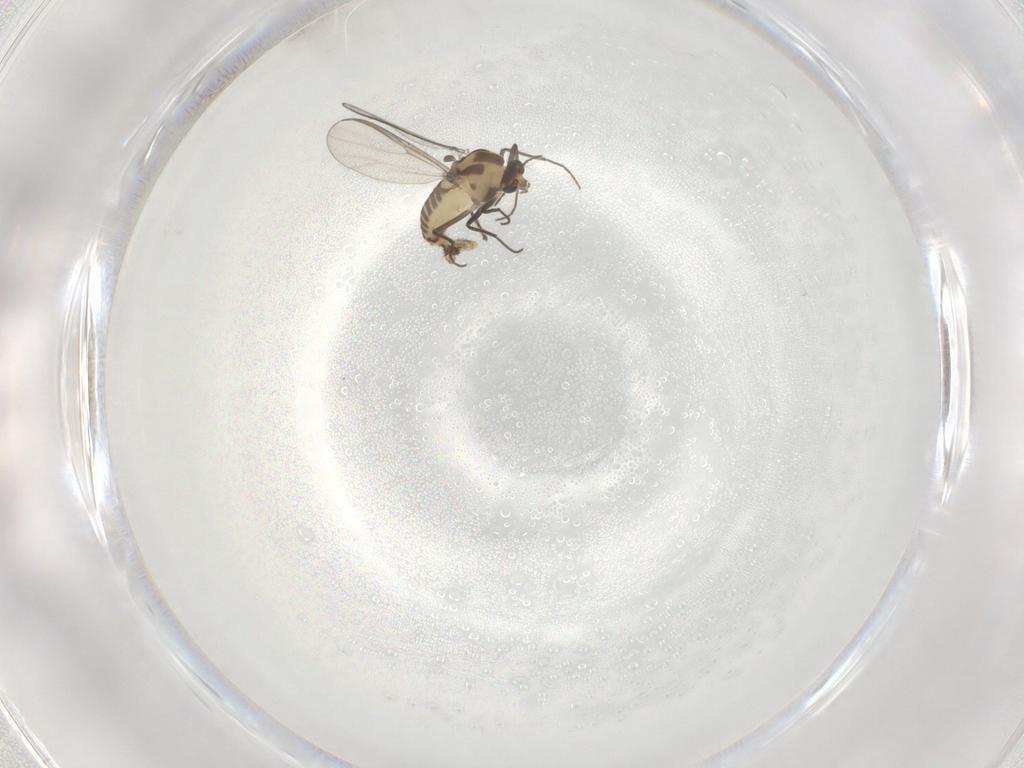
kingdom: Animalia
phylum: Arthropoda
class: Insecta
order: Diptera
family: Chironomidae
